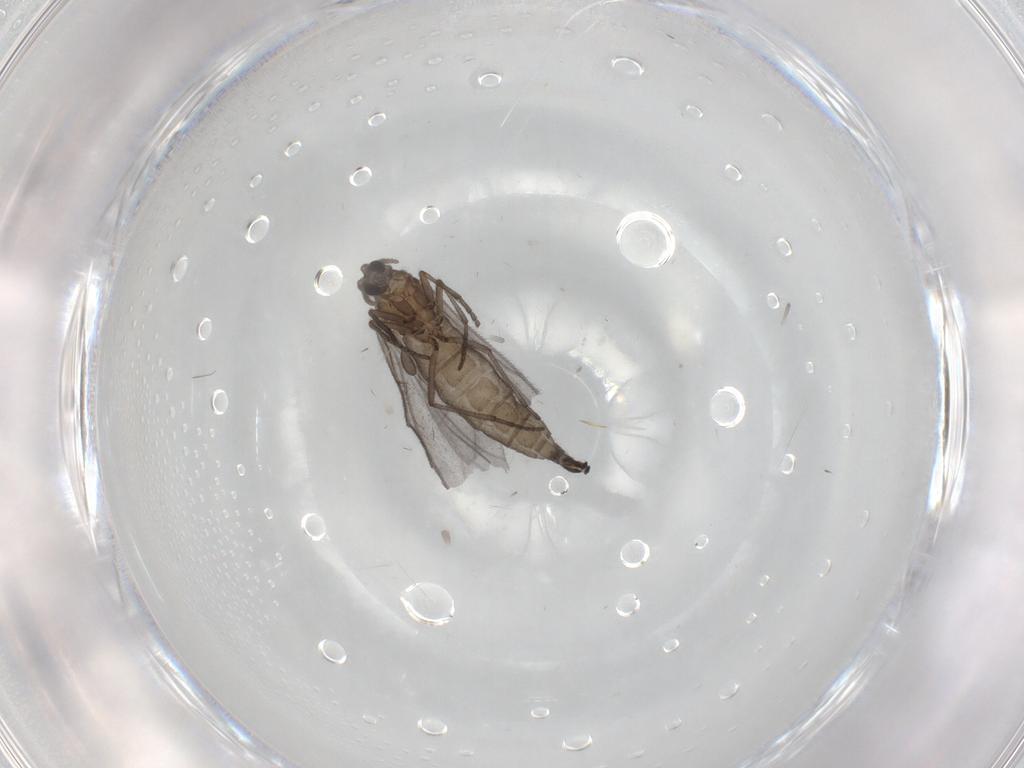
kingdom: Animalia
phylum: Arthropoda
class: Insecta
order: Diptera
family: Sciaridae
